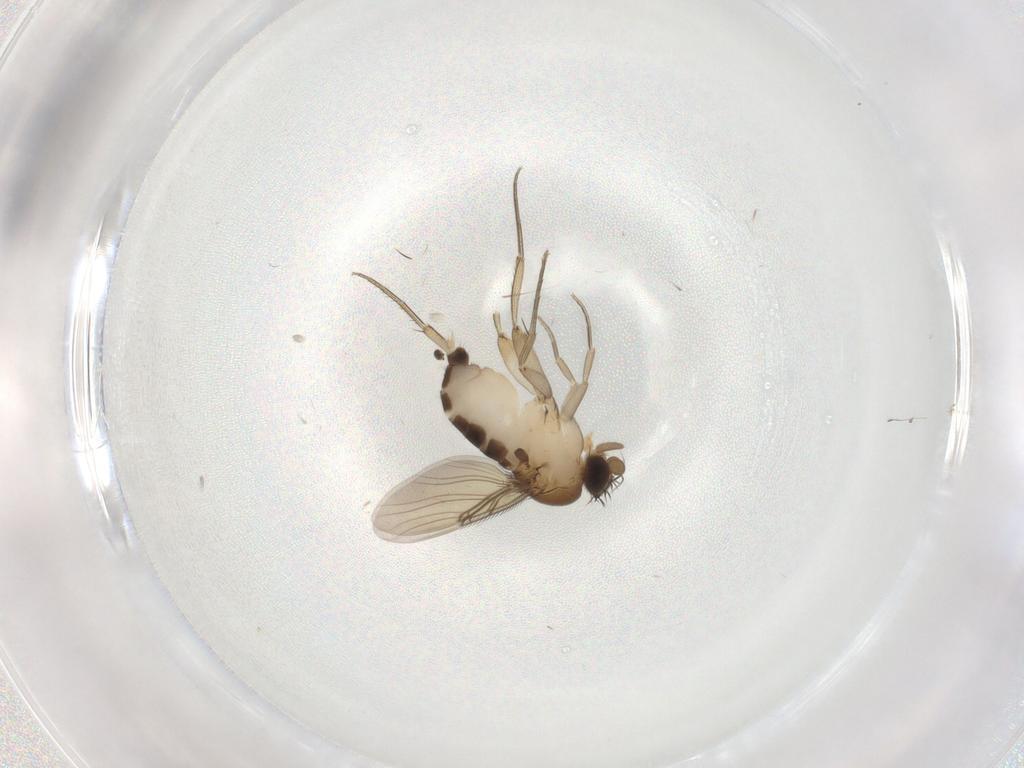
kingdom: Animalia
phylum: Arthropoda
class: Insecta
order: Diptera
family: Phoridae
